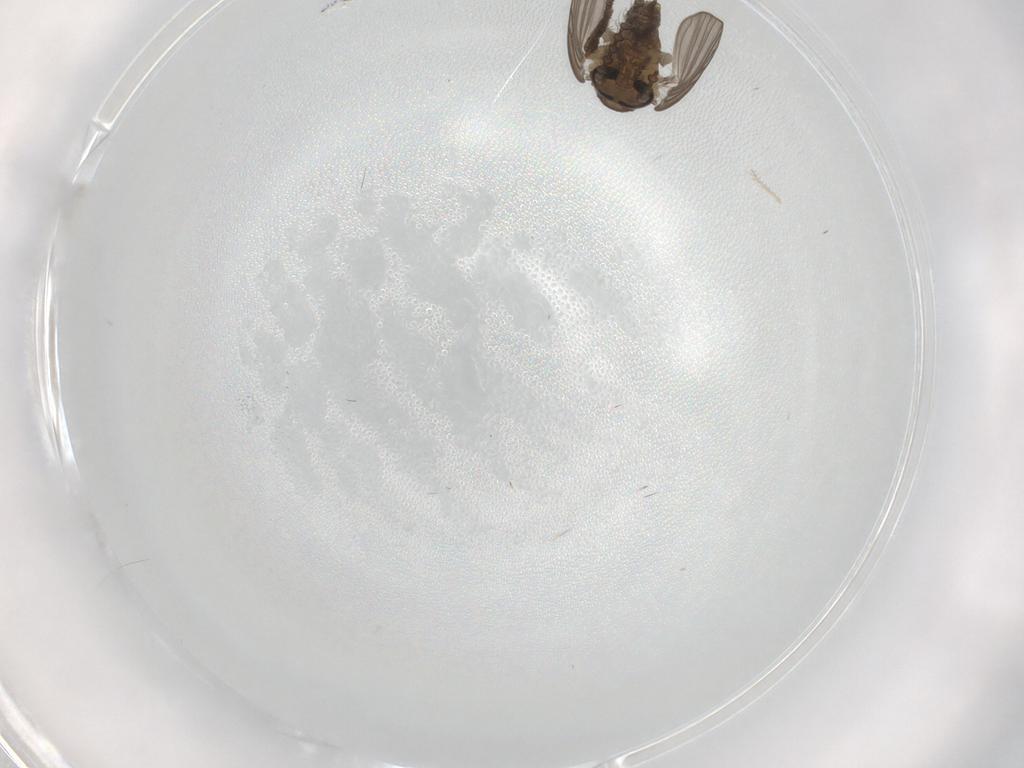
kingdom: Animalia
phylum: Arthropoda
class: Insecta
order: Diptera
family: Psychodidae
